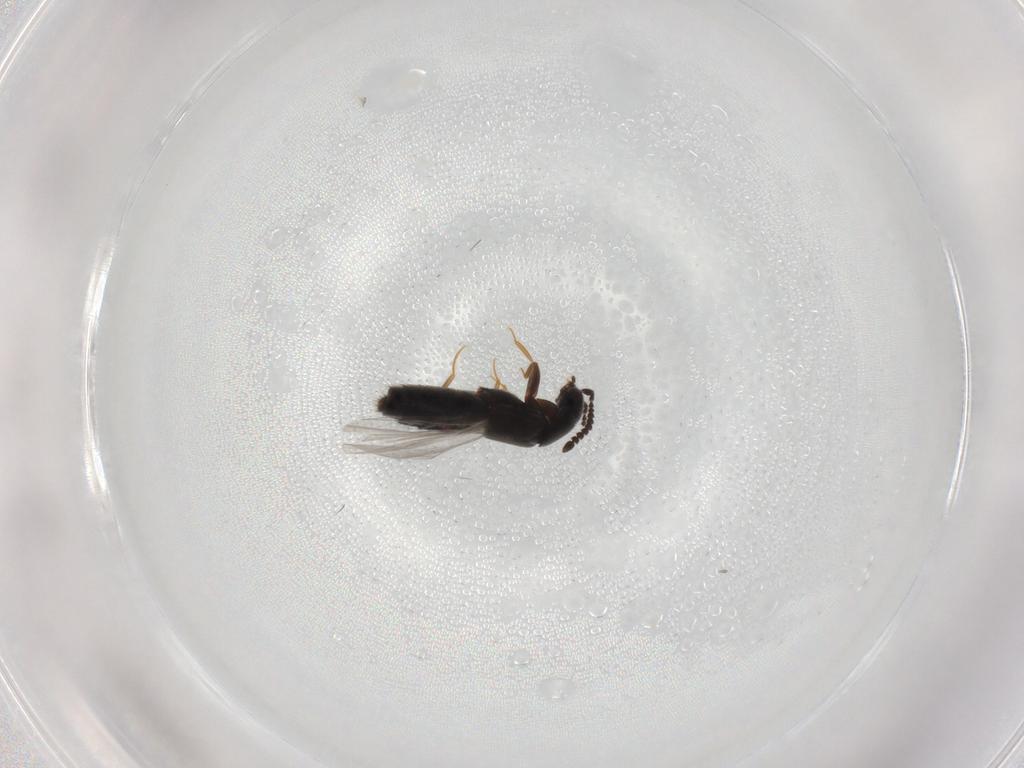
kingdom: Animalia
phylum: Arthropoda
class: Insecta
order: Coleoptera
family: Staphylinidae
